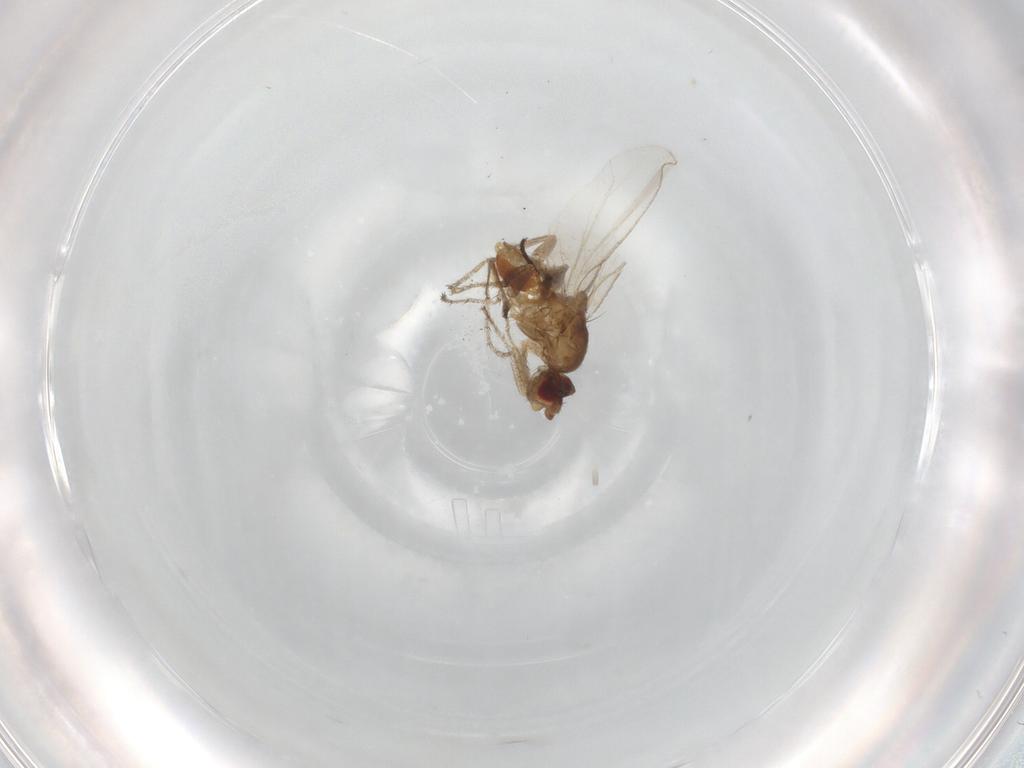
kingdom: Animalia
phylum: Arthropoda
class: Insecta
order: Diptera
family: Sphaeroceridae
